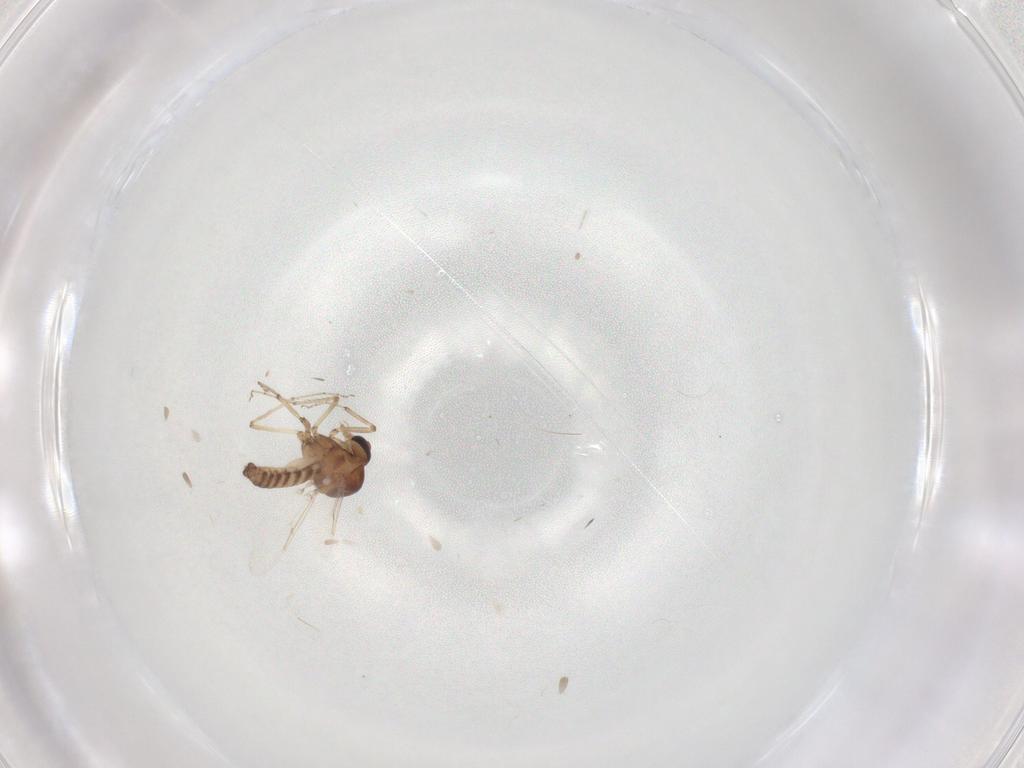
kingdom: Animalia
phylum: Arthropoda
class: Insecta
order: Diptera
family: Ceratopogonidae
